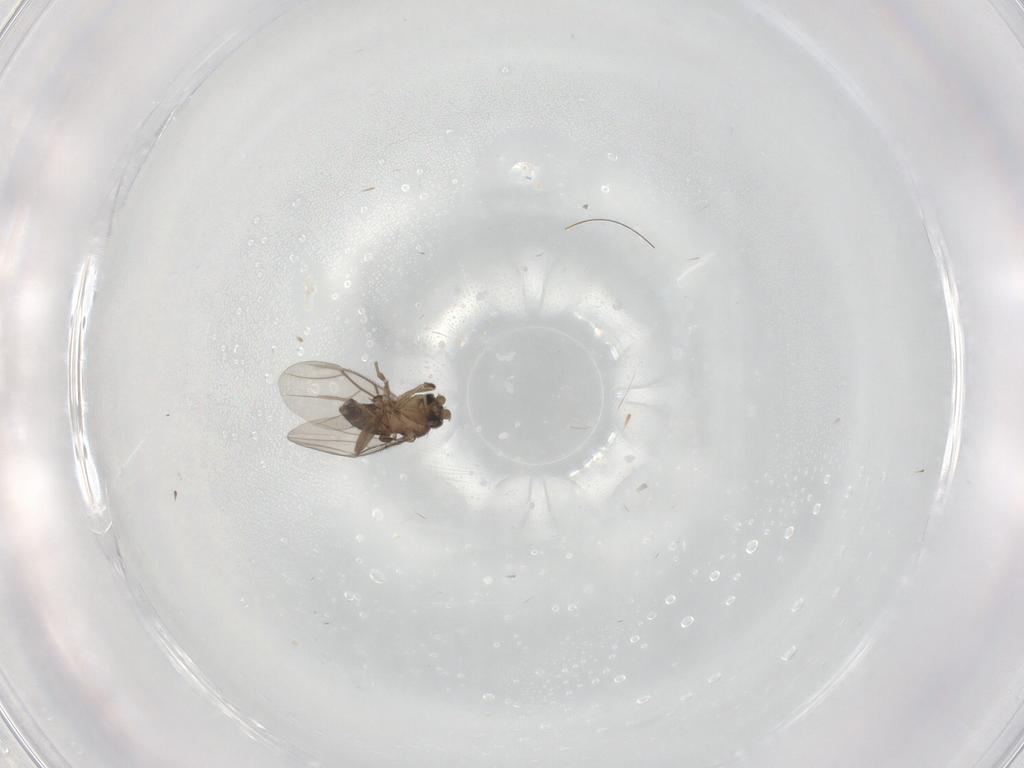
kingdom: Animalia
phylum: Arthropoda
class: Insecta
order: Diptera
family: Phoridae
